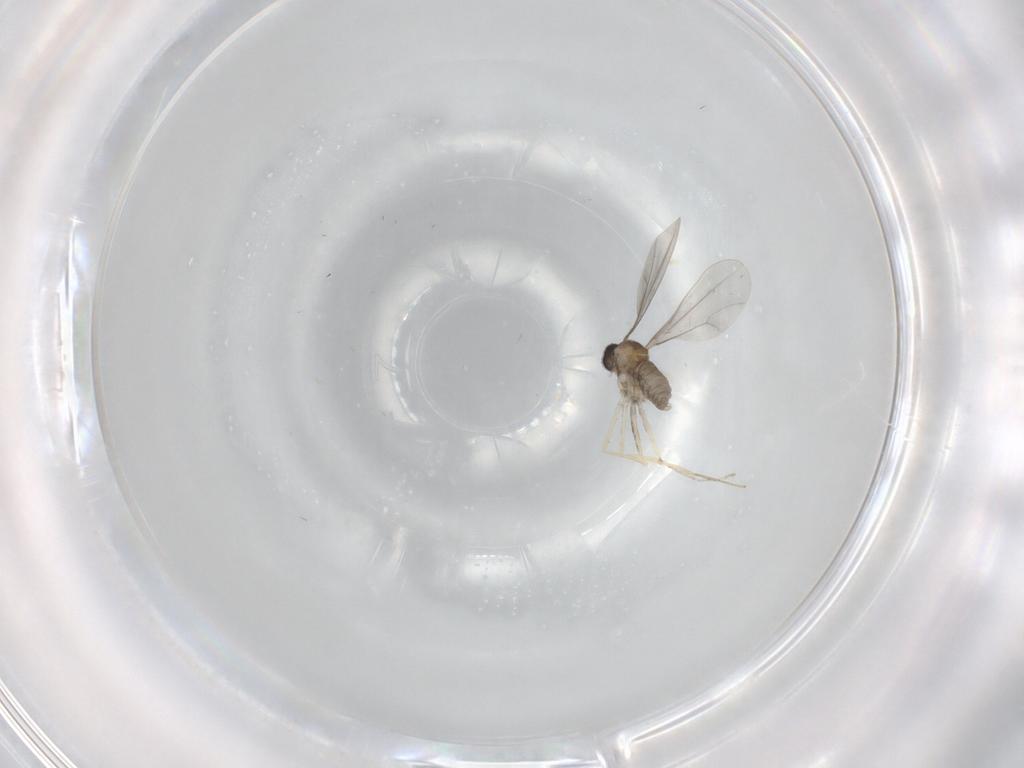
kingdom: Animalia
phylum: Arthropoda
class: Insecta
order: Diptera
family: Cecidomyiidae
